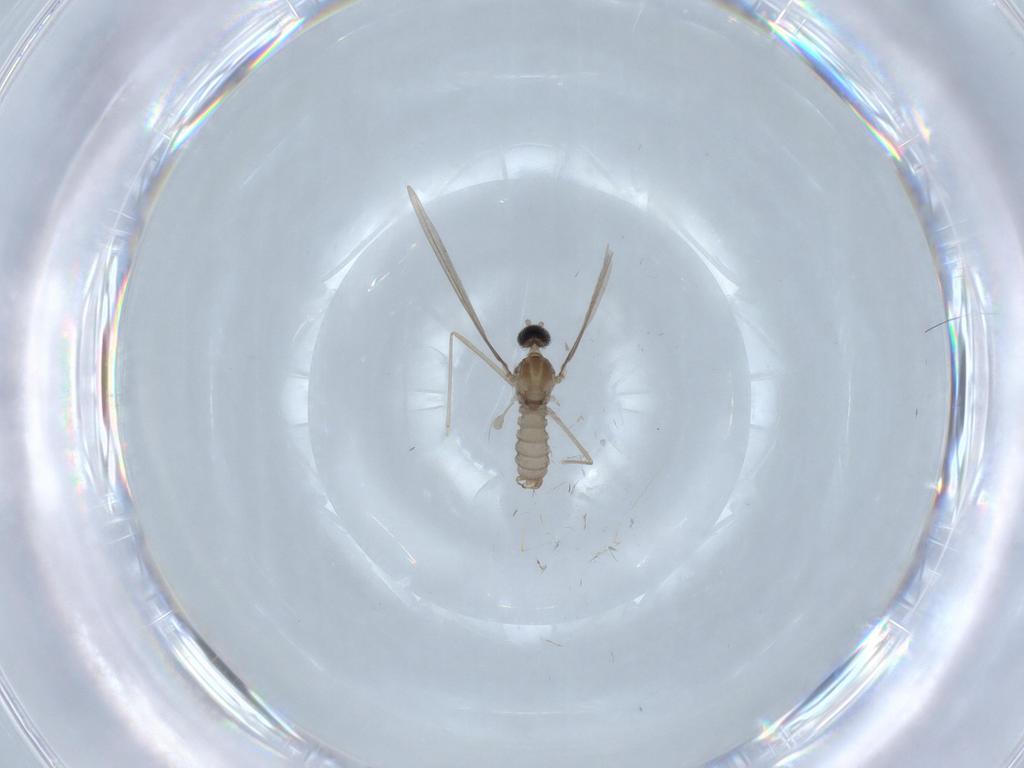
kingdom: Animalia
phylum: Arthropoda
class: Insecta
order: Diptera
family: Cecidomyiidae
